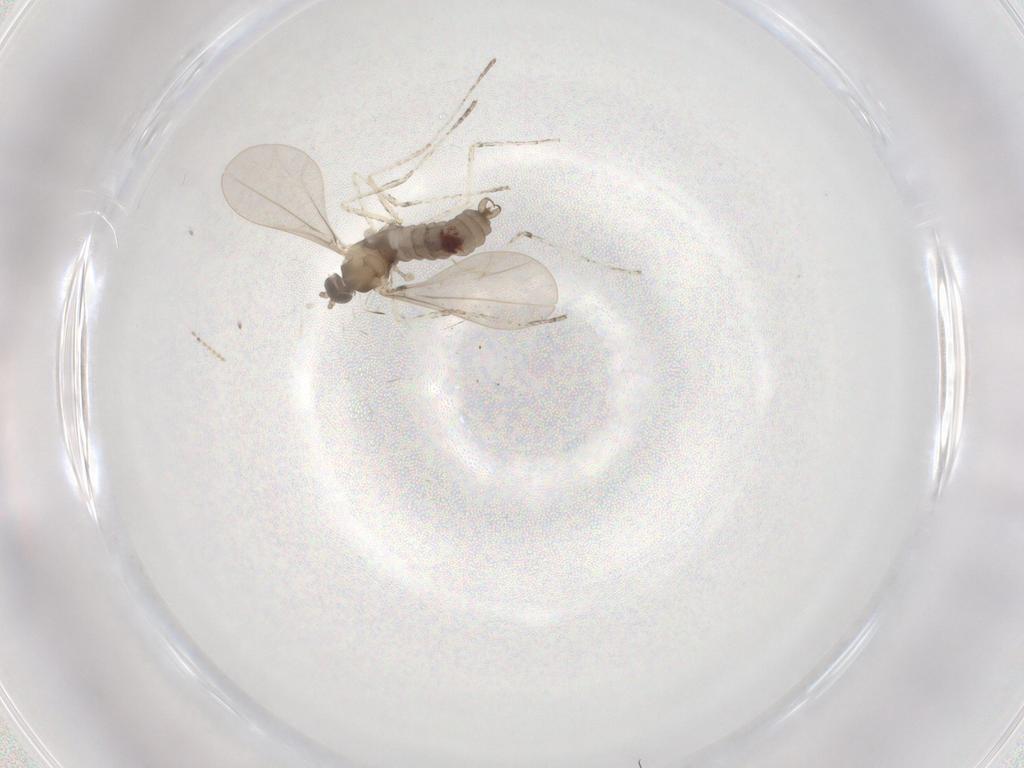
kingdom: Animalia
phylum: Arthropoda
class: Insecta
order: Diptera
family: Cecidomyiidae
